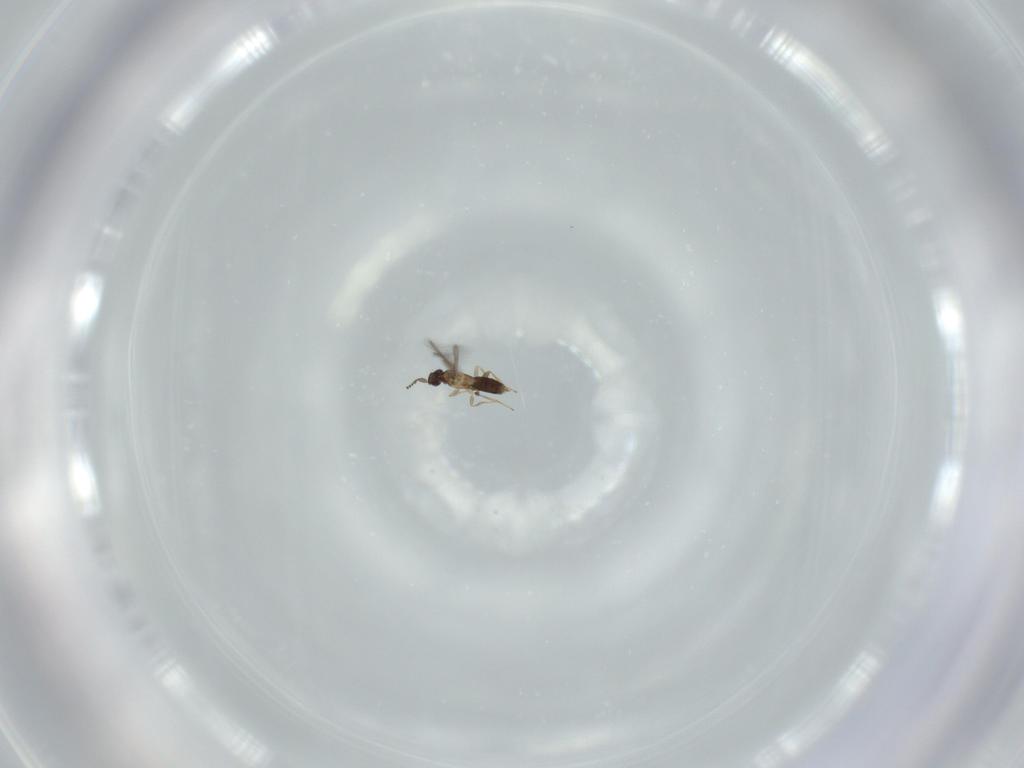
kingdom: Animalia
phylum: Arthropoda
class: Insecta
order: Hymenoptera
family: Mymaridae
